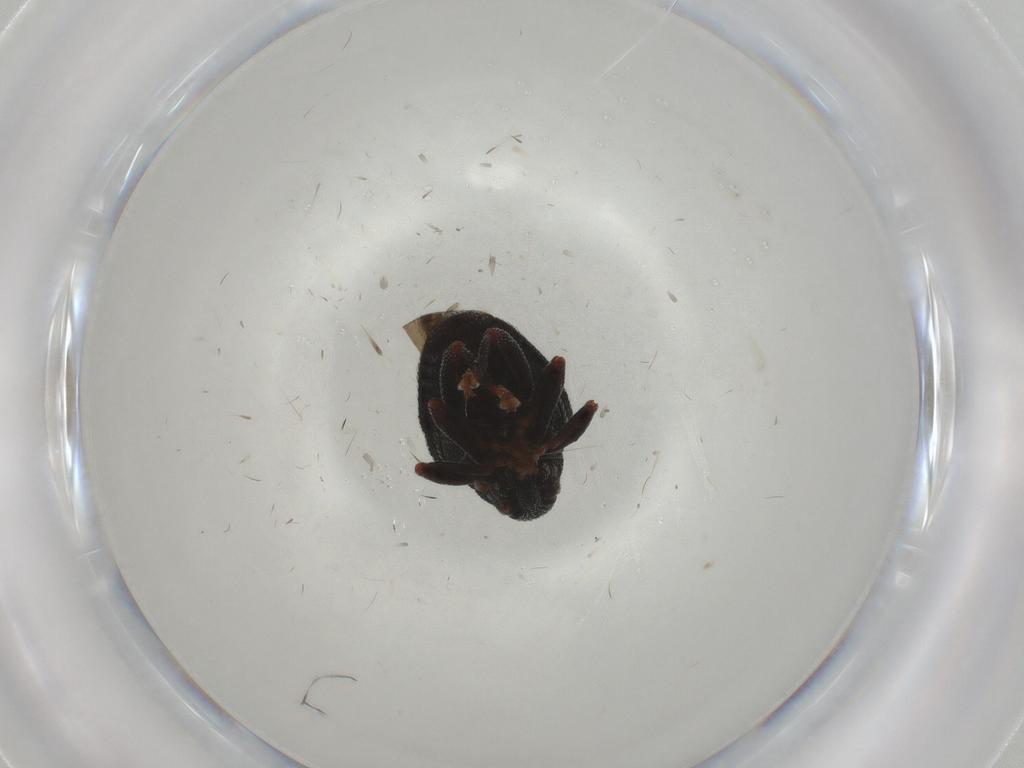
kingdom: Animalia
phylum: Arthropoda
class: Insecta
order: Coleoptera
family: Curculionidae
